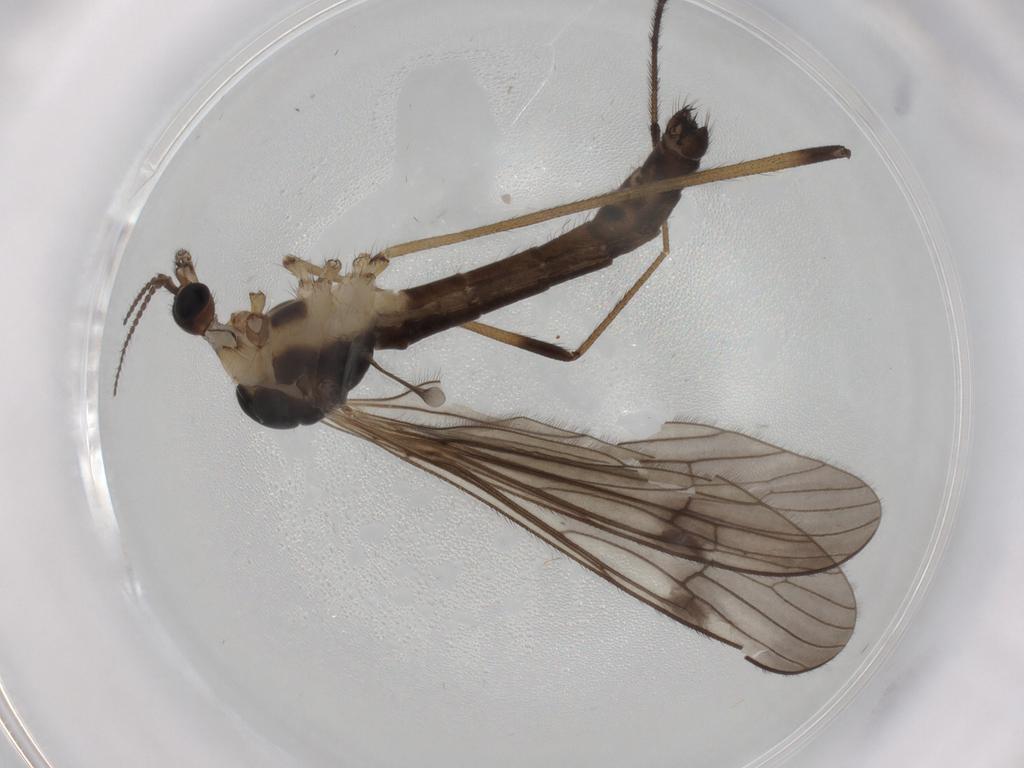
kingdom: Animalia
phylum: Arthropoda
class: Insecta
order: Diptera
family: Limoniidae
